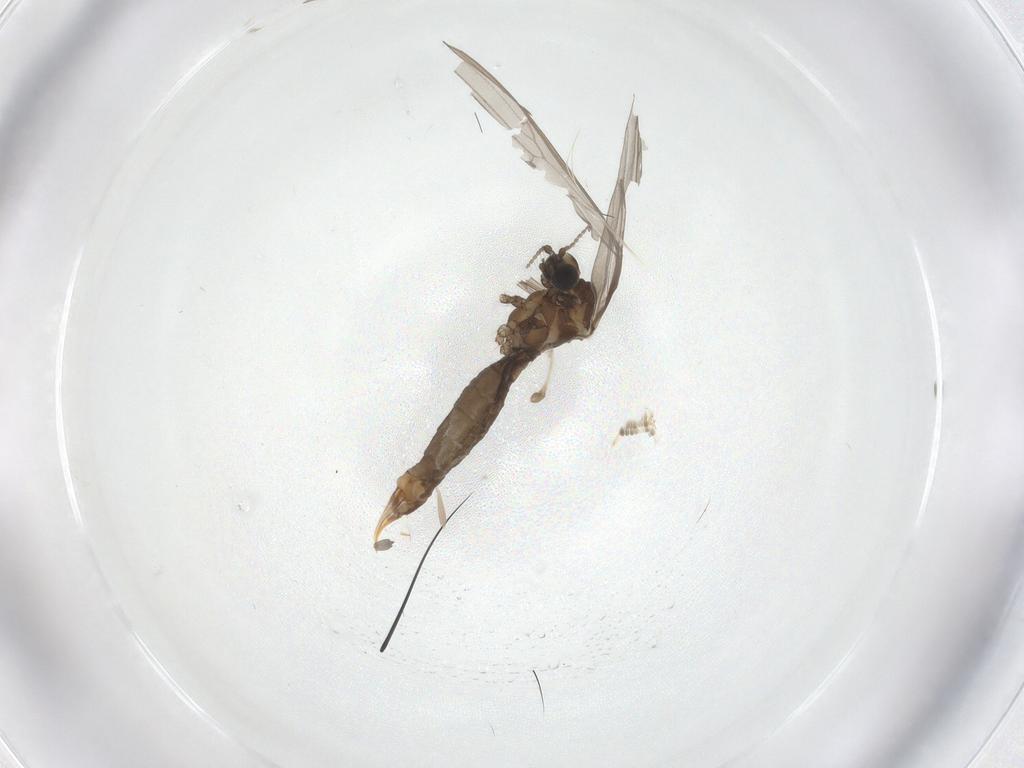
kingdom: Animalia
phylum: Arthropoda
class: Insecta
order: Diptera
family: Limoniidae
